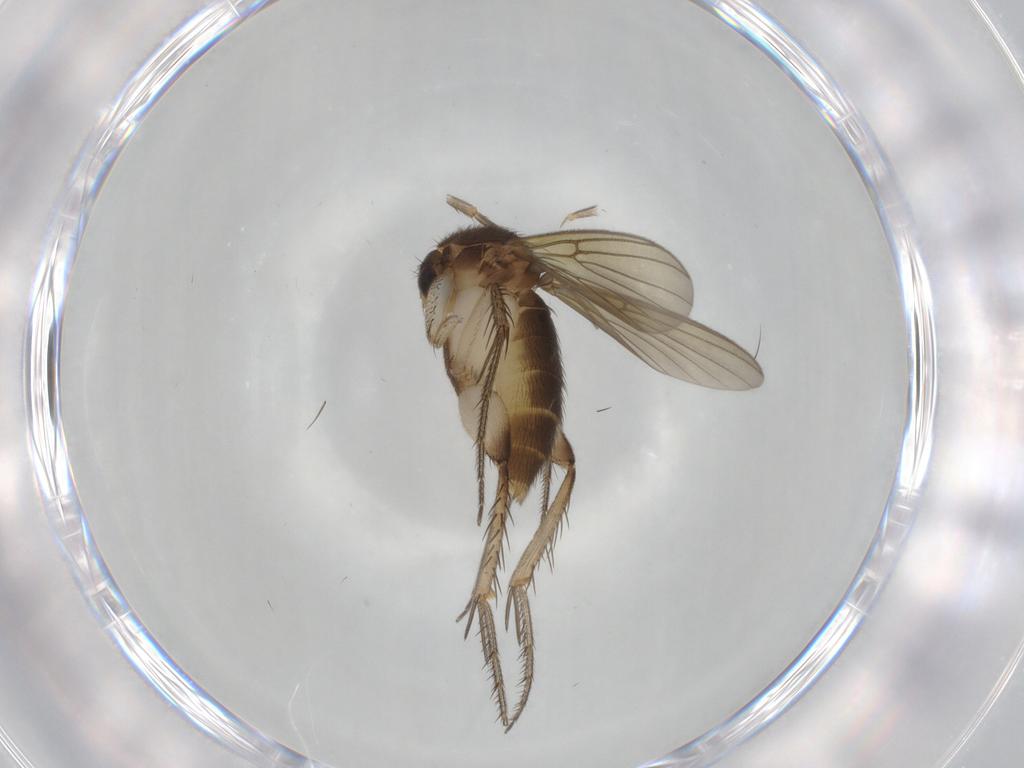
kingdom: Animalia
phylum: Arthropoda
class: Insecta
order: Diptera
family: Mycetophilidae
